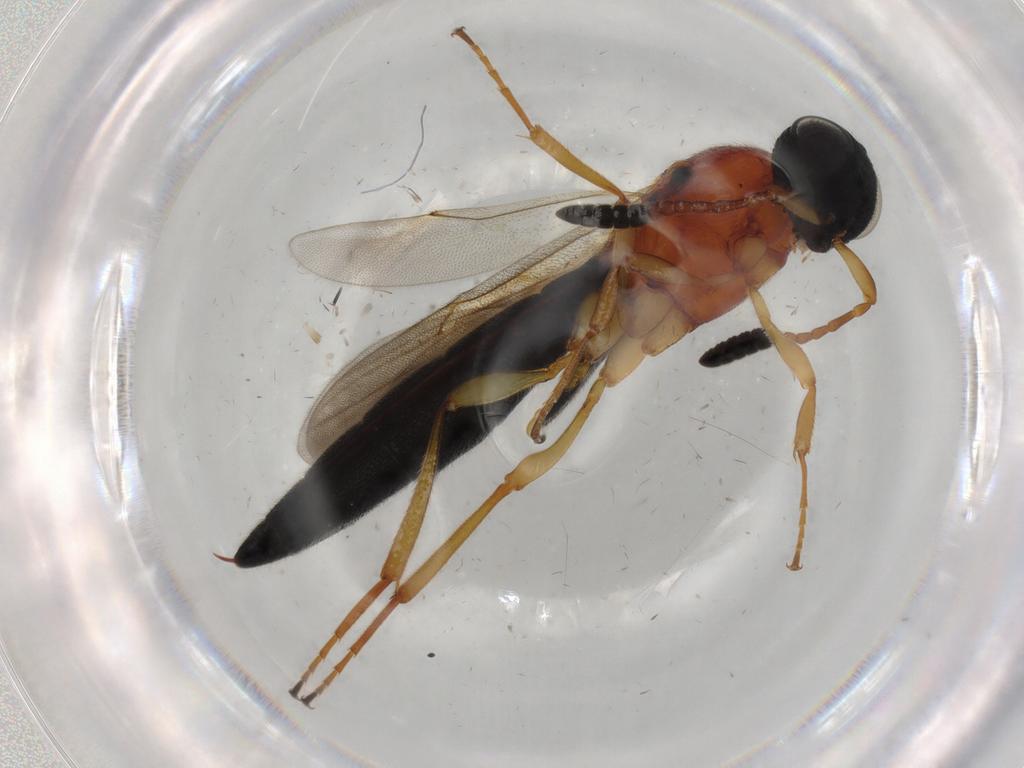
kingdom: Animalia
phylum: Arthropoda
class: Insecta
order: Hymenoptera
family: Scelionidae
